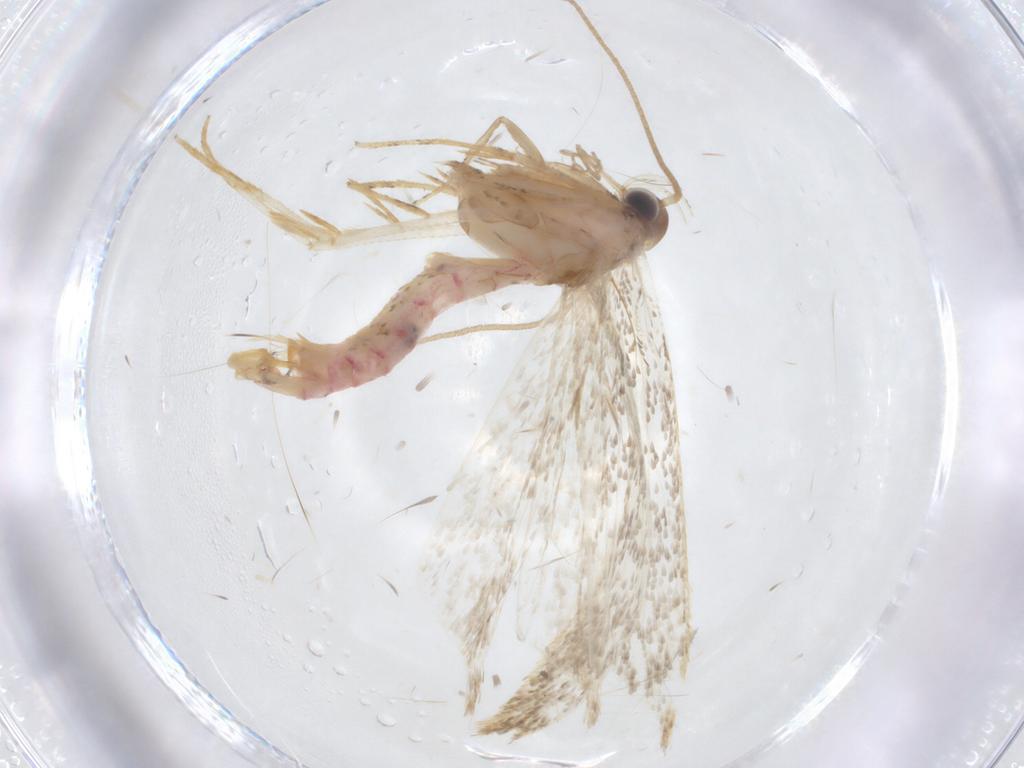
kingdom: Animalia
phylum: Arthropoda
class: Insecta
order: Lepidoptera
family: Crambidae
